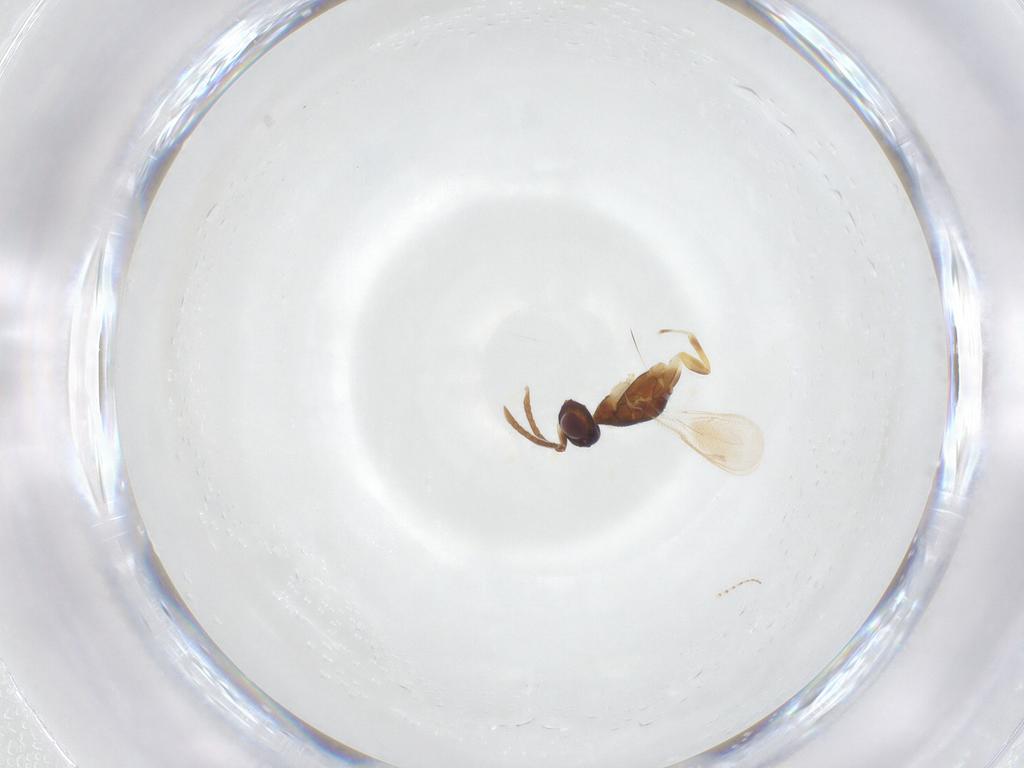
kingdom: Animalia
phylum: Arthropoda
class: Insecta
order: Hymenoptera
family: Eupelmidae
